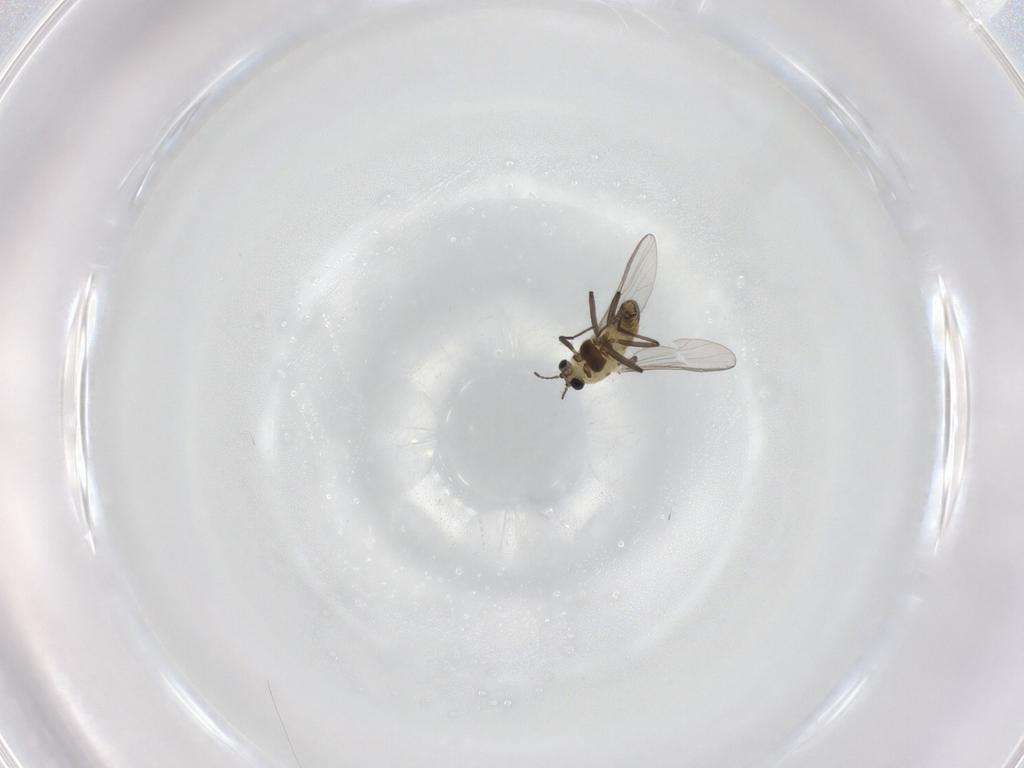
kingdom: Animalia
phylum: Arthropoda
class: Insecta
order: Diptera
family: Chironomidae
